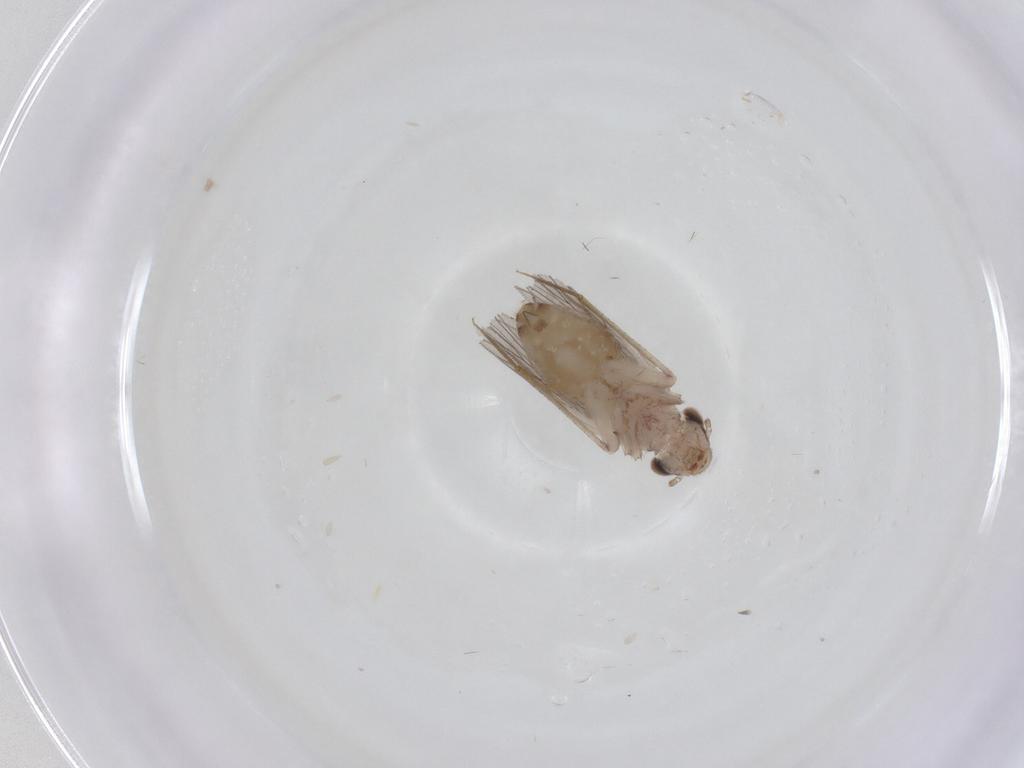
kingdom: Animalia
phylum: Arthropoda
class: Insecta
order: Psocodea
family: Lepidopsocidae
